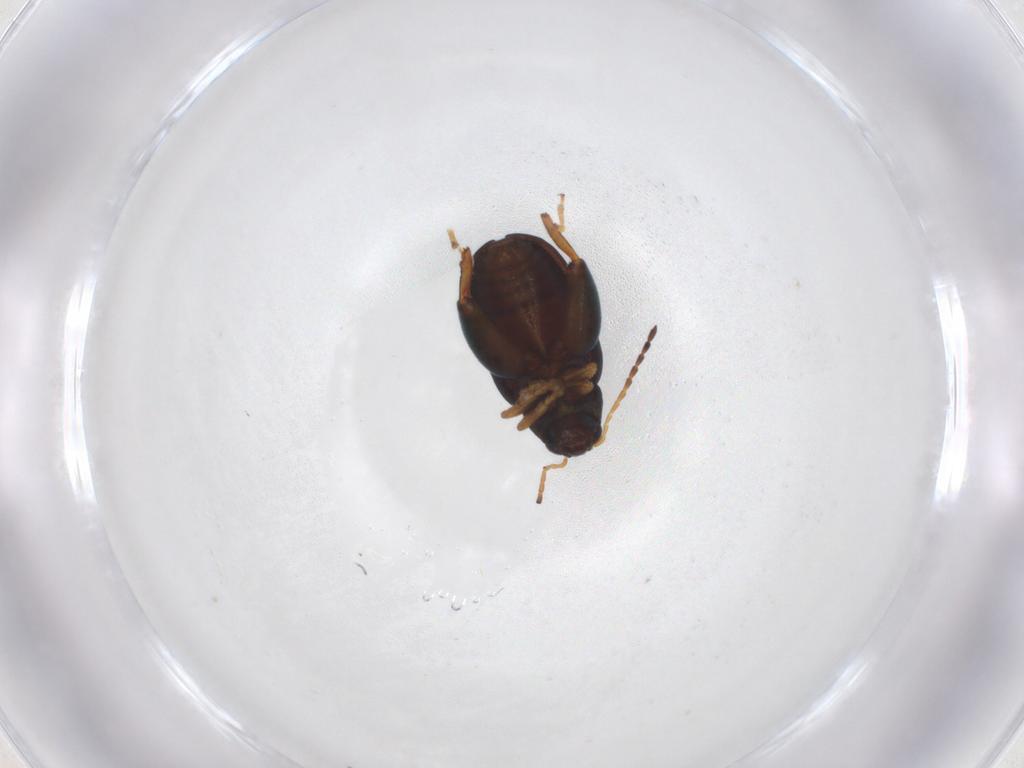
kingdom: Animalia
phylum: Arthropoda
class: Insecta
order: Coleoptera
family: Chrysomelidae
